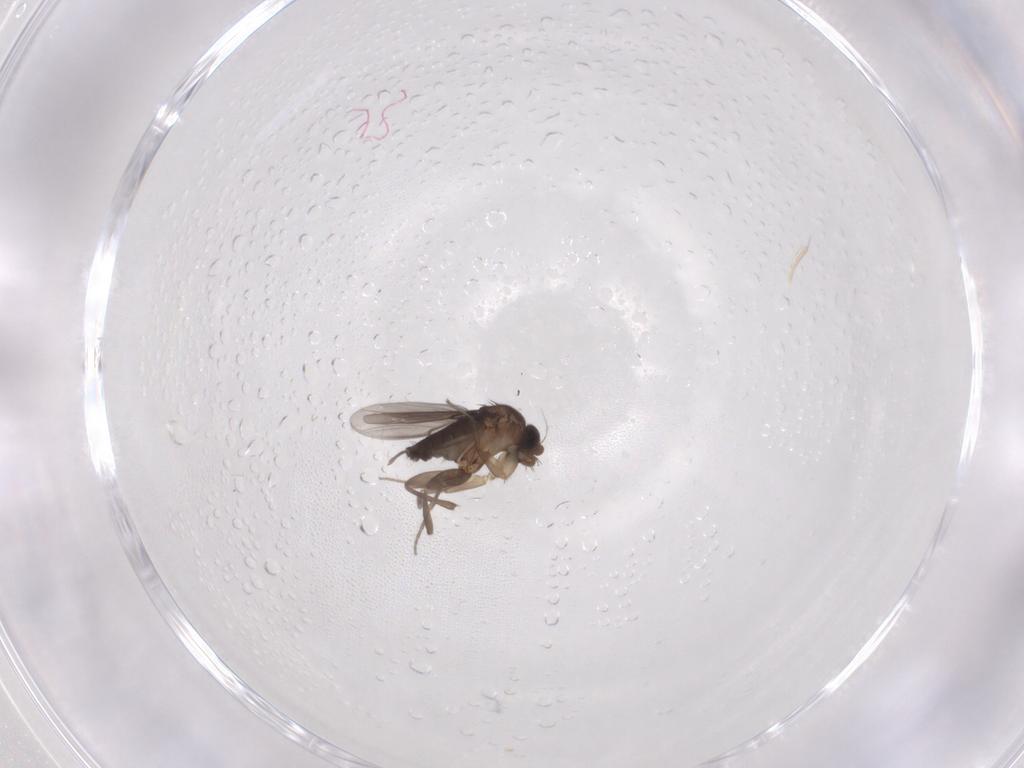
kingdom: Animalia
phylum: Arthropoda
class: Insecta
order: Diptera
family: Phoridae
